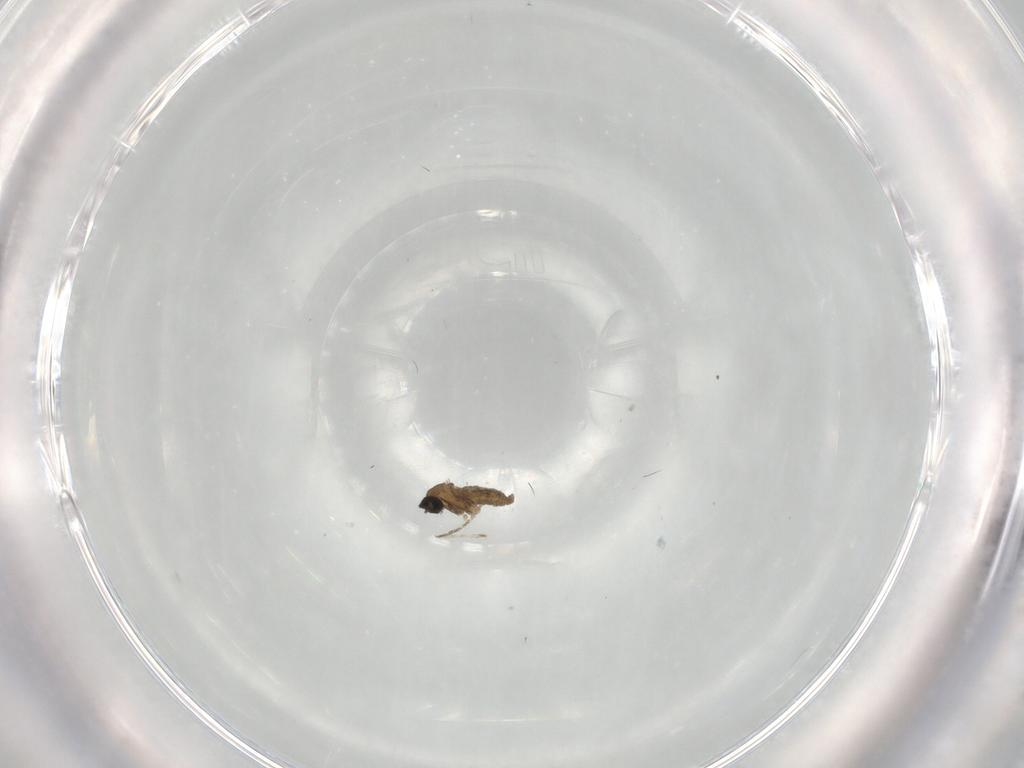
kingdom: Animalia
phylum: Arthropoda
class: Insecta
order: Diptera
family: Cecidomyiidae
